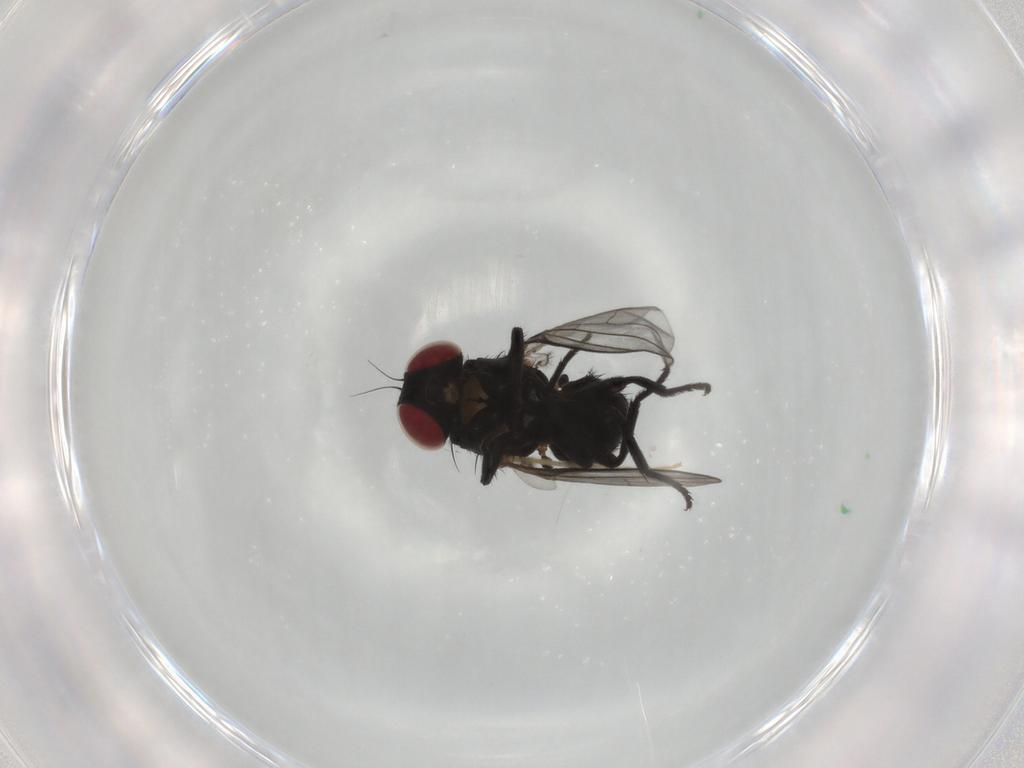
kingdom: Animalia
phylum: Arthropoda
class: Insecta
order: Diptera
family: Agromyzidae
